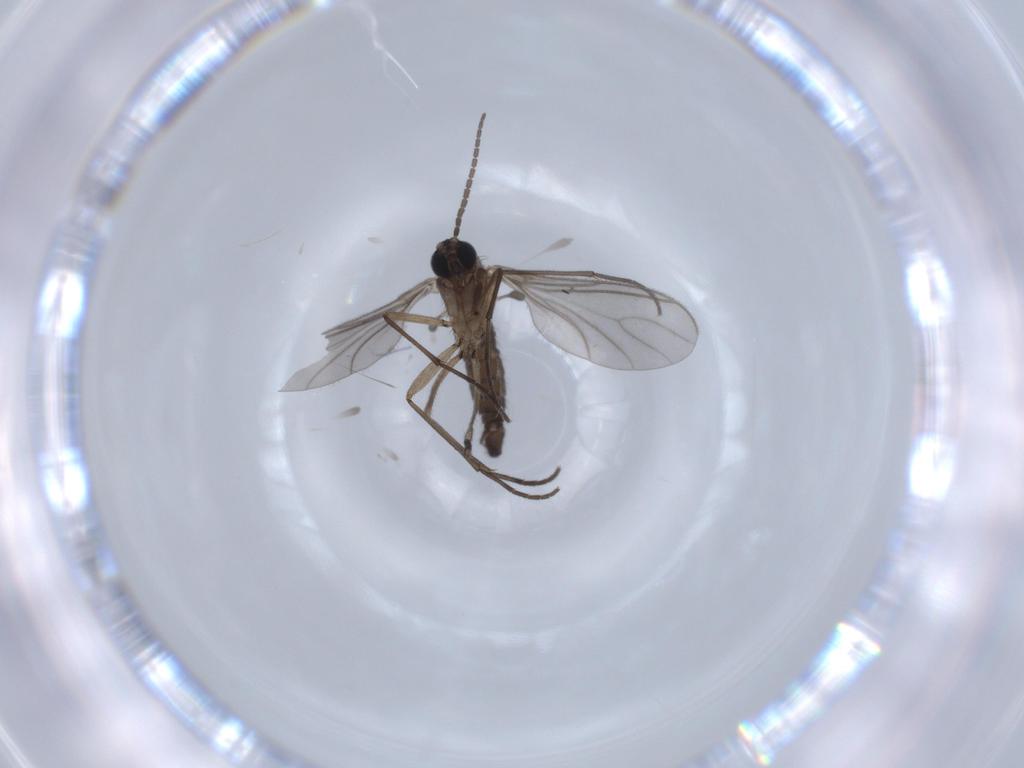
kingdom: Animalia
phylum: Arthropoda
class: Insecta
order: Diptera
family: Sciaridae
